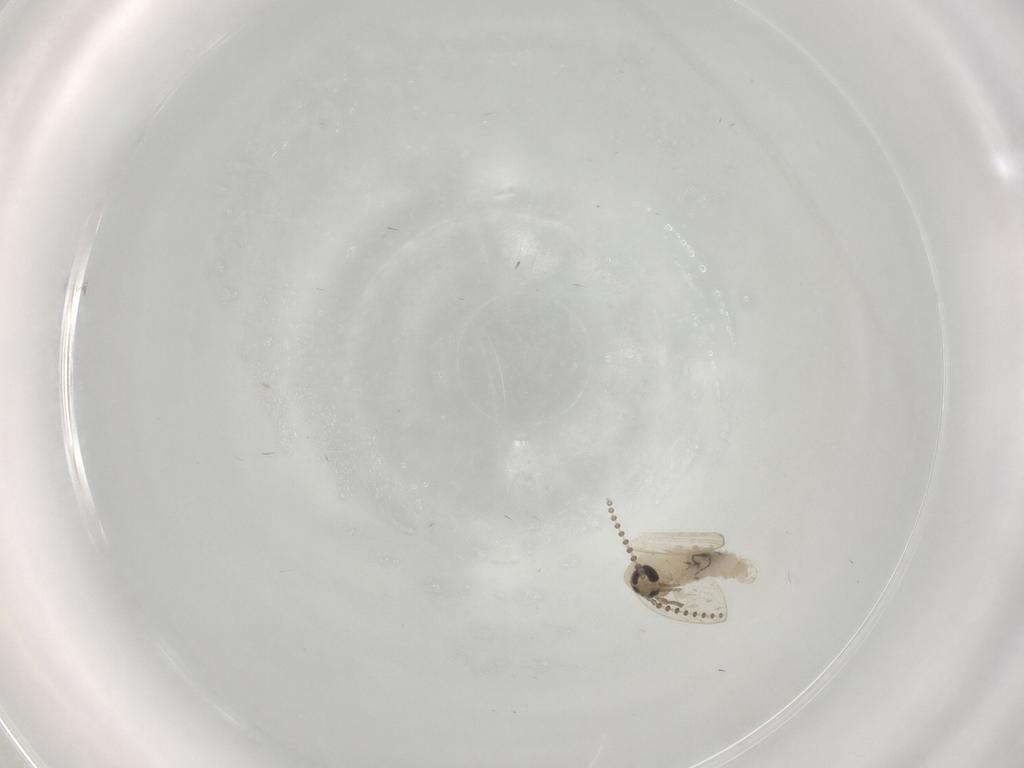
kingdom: Animalia
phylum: Arthropoda
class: Insecta
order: Diptera
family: Psychodidae
